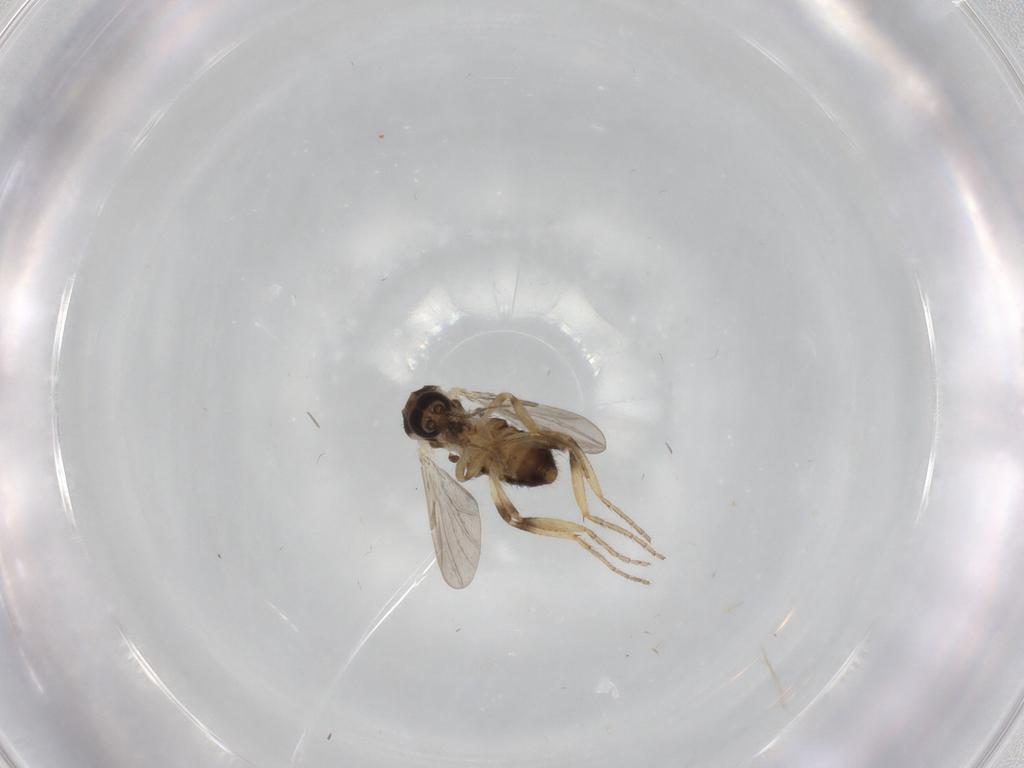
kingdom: Animalia
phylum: Arthropoda
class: Insecta
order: Diptera
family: Ceratopogonidae
